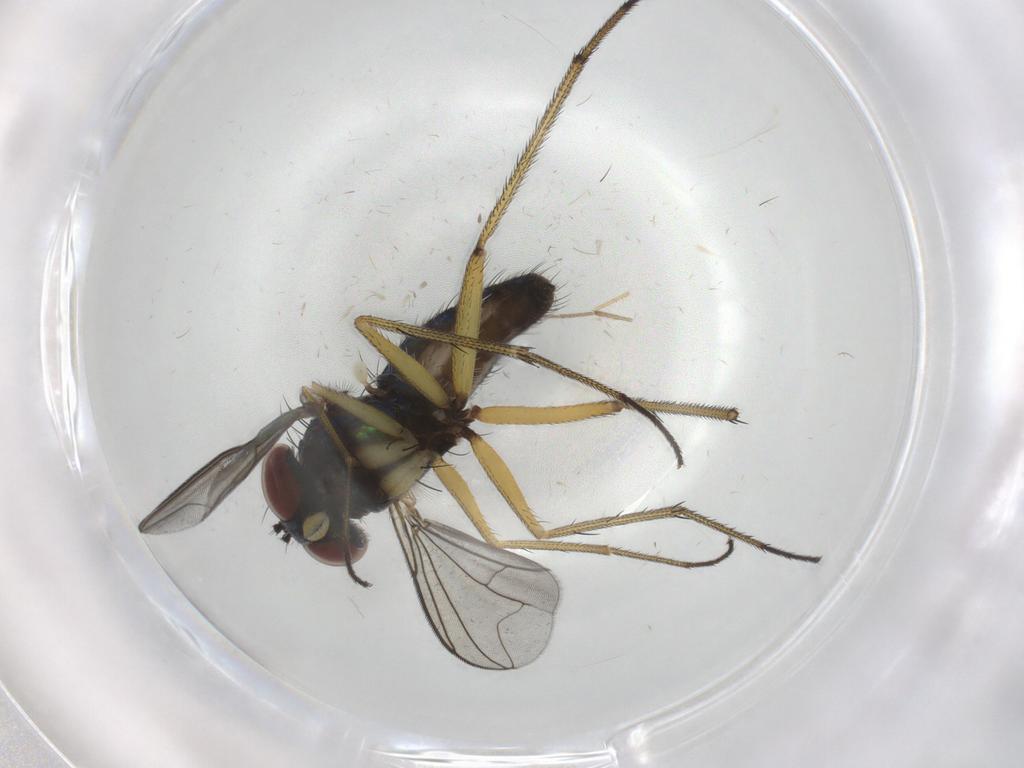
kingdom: Animalia
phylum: Arthropoda
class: Insecta
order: Diptera
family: Dolichopodidae
